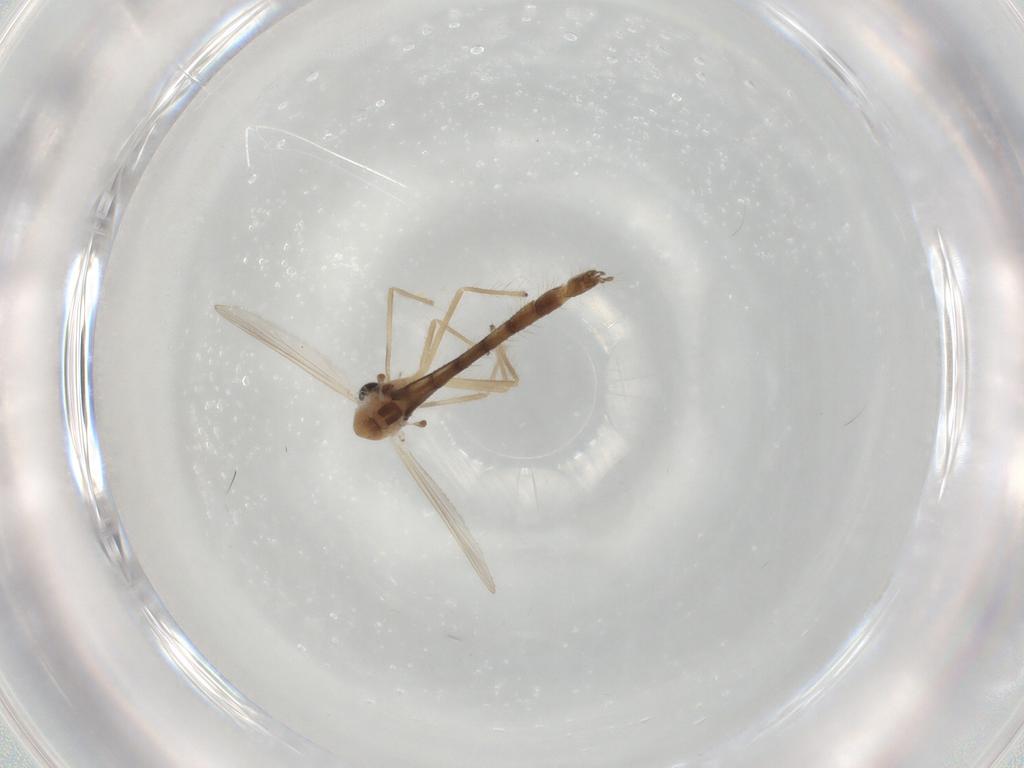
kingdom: Animalia
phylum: Arthropoda
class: Insecta
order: Diptera
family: Chironomidae
